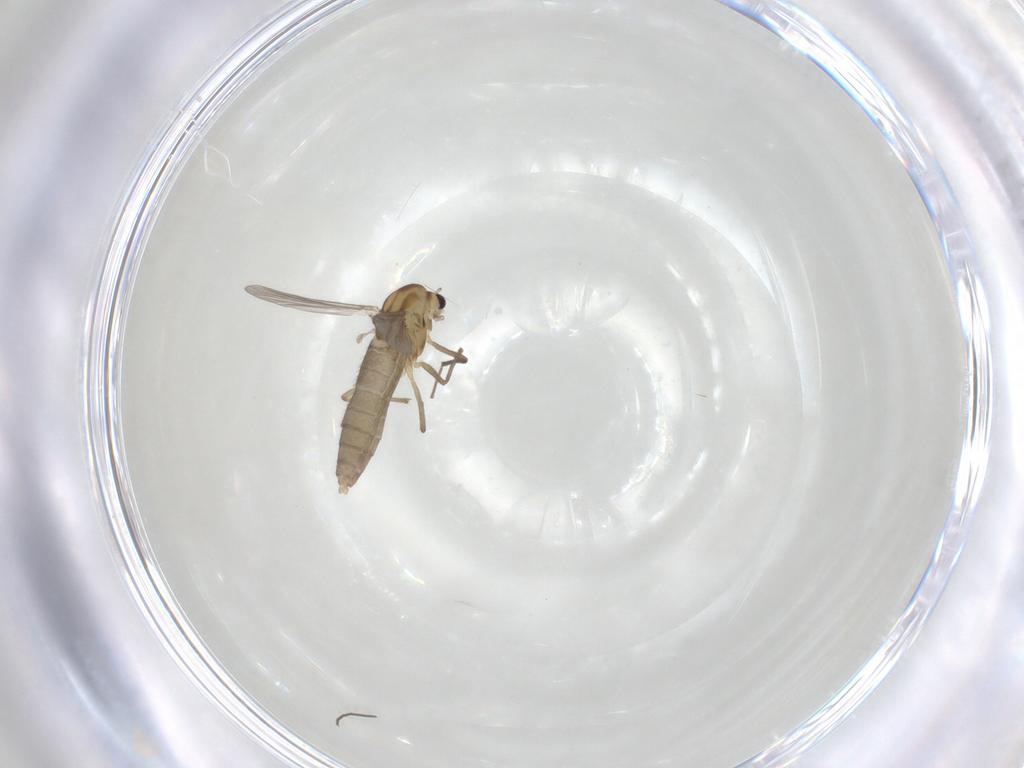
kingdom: Animalia
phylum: Arthropoda
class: Insecta
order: Diptera
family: Chironomidae
